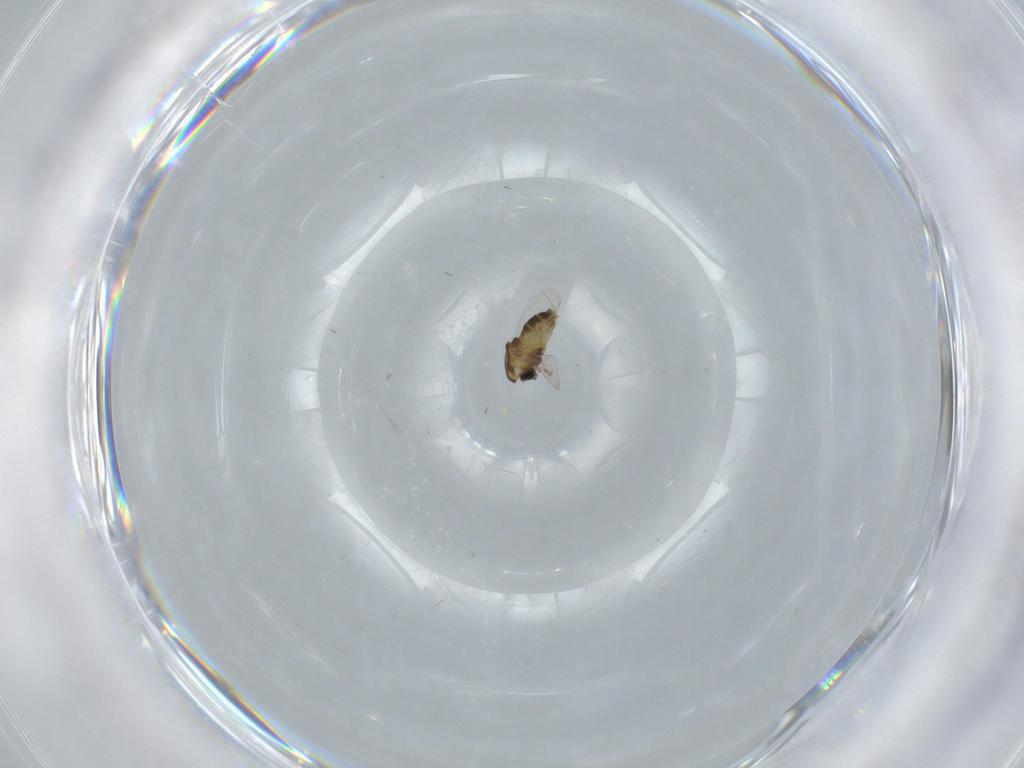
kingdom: Animalia
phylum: Arthropoda
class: Insecta
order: Diptera
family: Chironomidae
